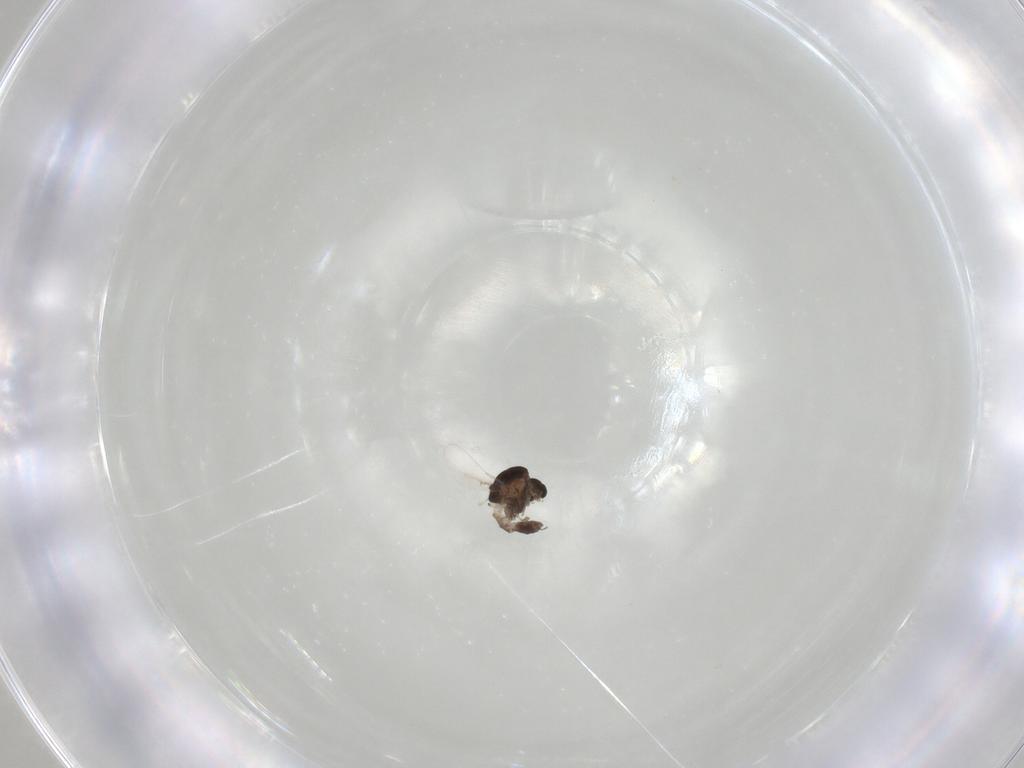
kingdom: Animalia
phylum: Arthropoda
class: Insecta
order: Diptera
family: Chironomidae
